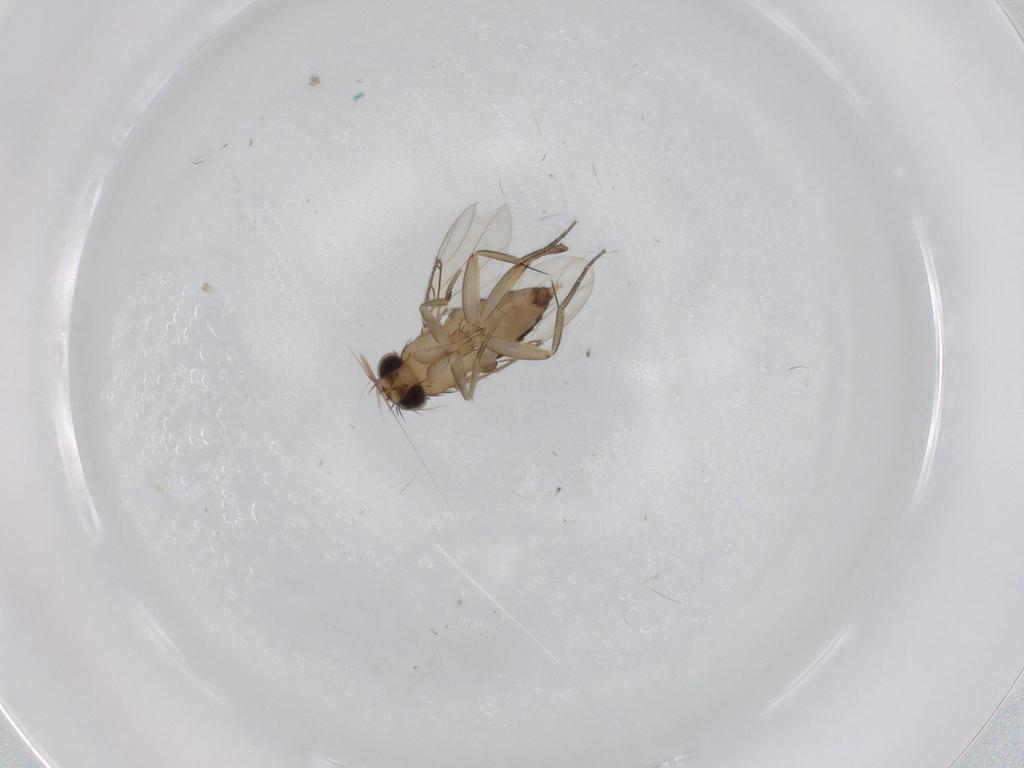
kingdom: Animalia
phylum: Arthropoda
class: Insecta
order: Diptera
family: Phoridae
